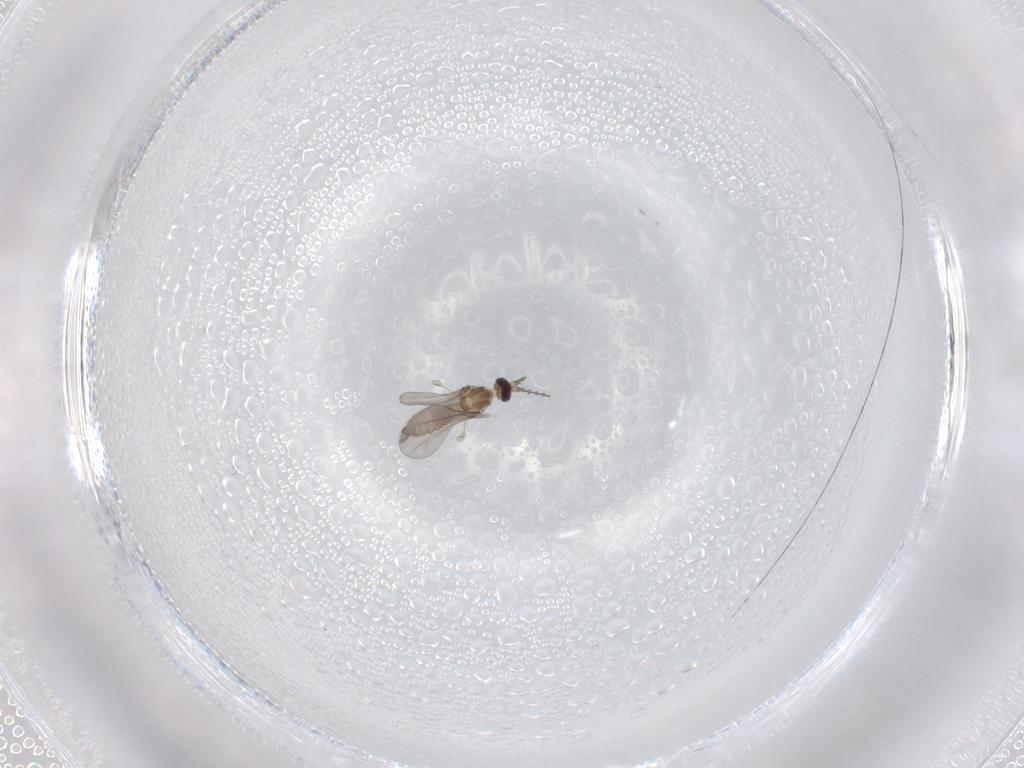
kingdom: Animalia
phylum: Arthropoda
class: Insecta
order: Diptera
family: Cecidomyiidae
